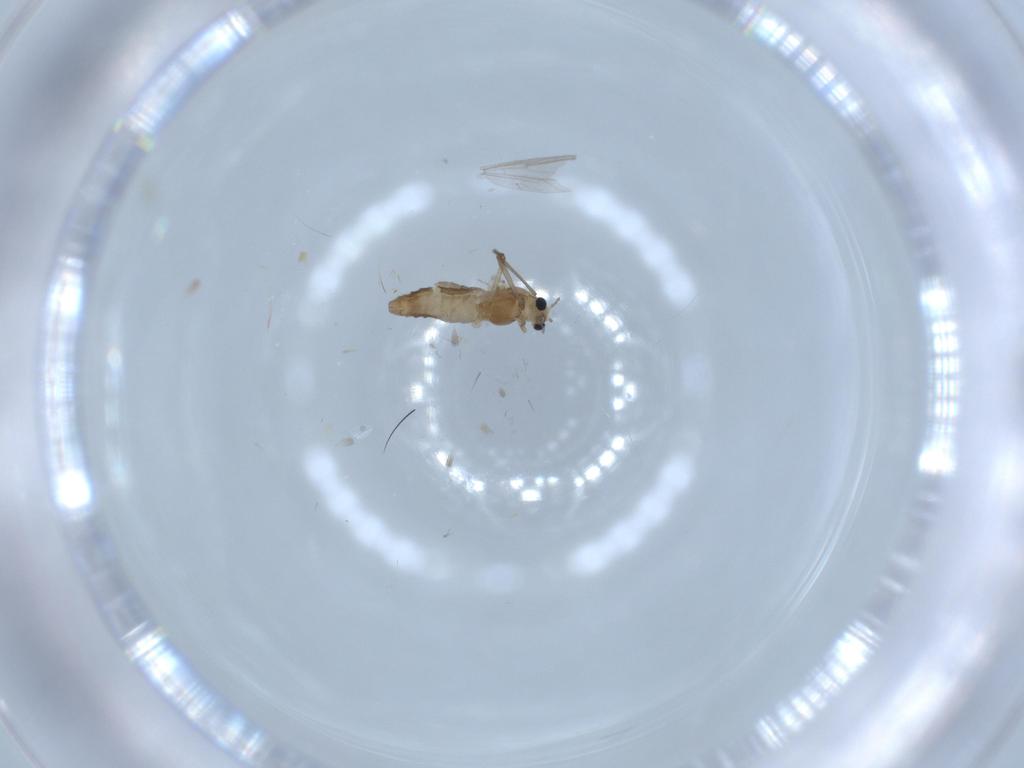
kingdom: Animalia
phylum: Arthropoda
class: Insecta
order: Diptera
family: Chironomidae
